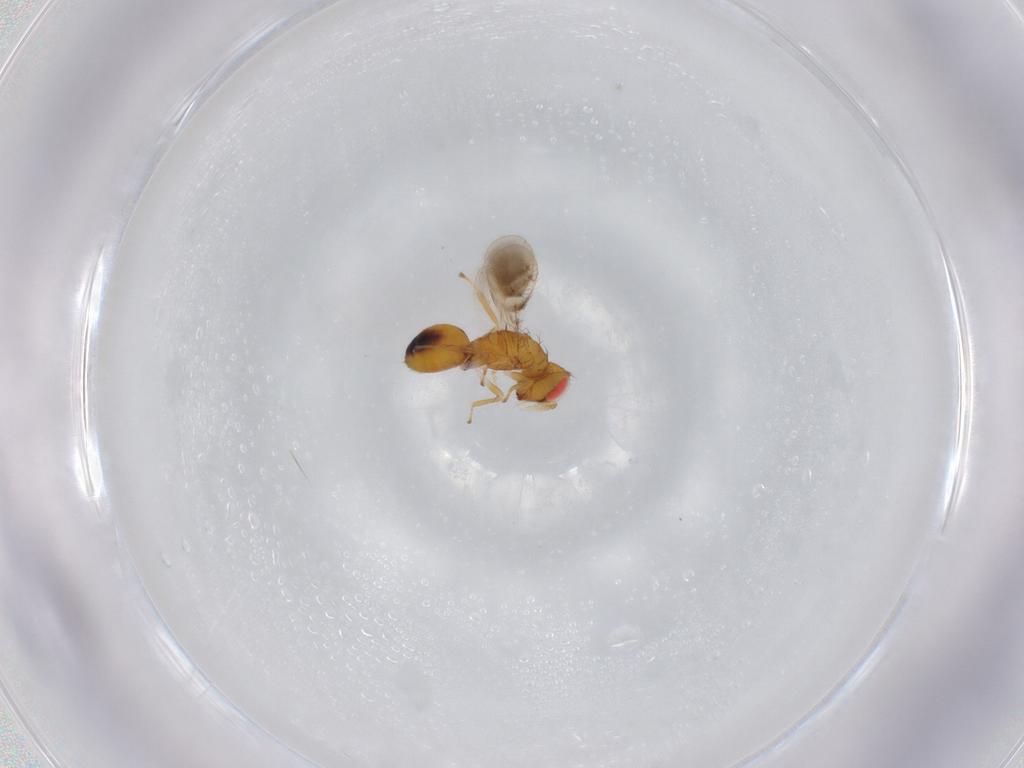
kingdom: Animalia
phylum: Arthropoda
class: Insecta
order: Hymenoptera
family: Eulophidae
